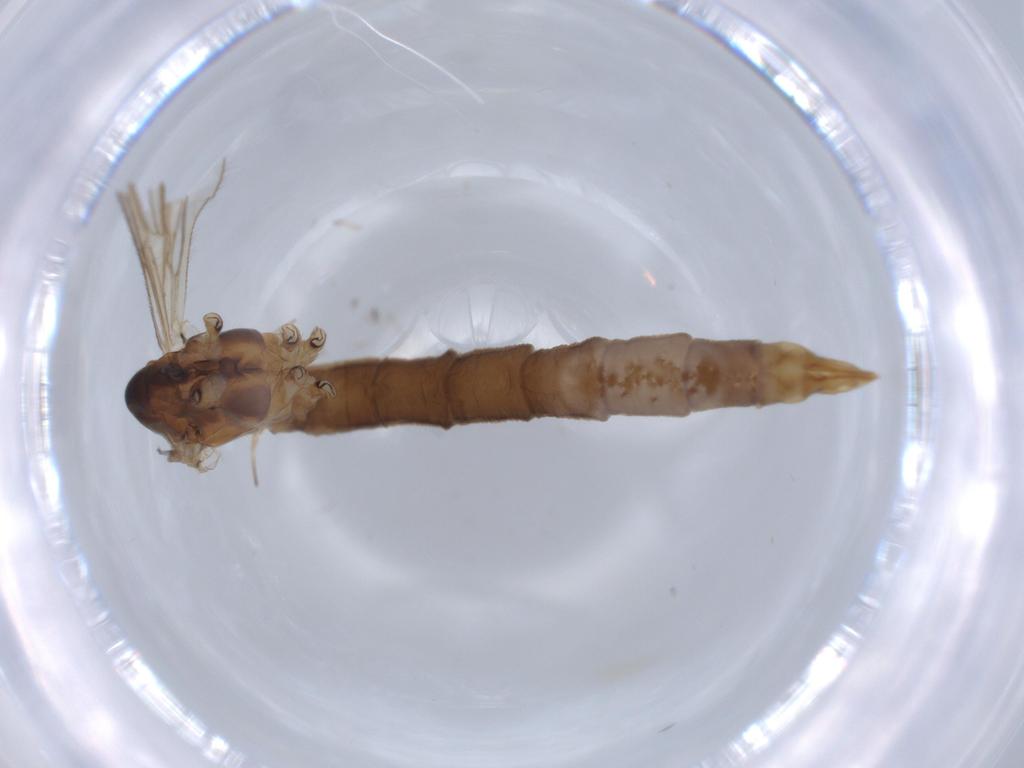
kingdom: Animalia
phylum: Arthropoda
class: Insecta
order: Diptera
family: Limoniidae
